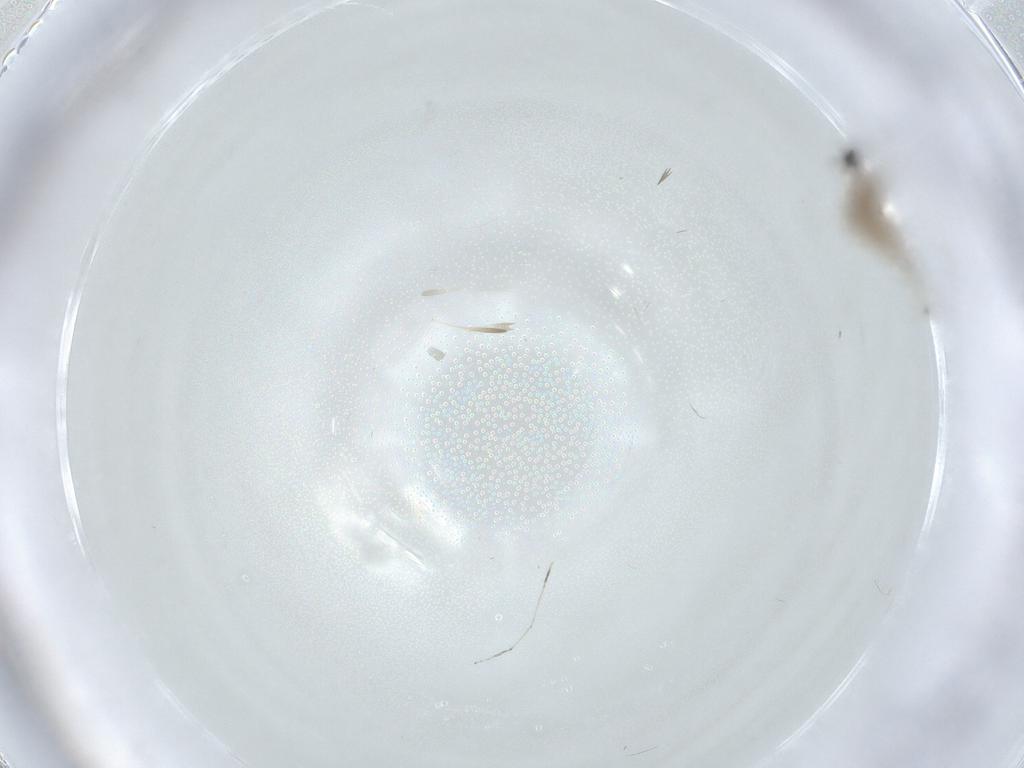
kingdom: Animalia
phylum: Arthropoda
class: Insecta
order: Diptera
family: Cecidomyiidae
